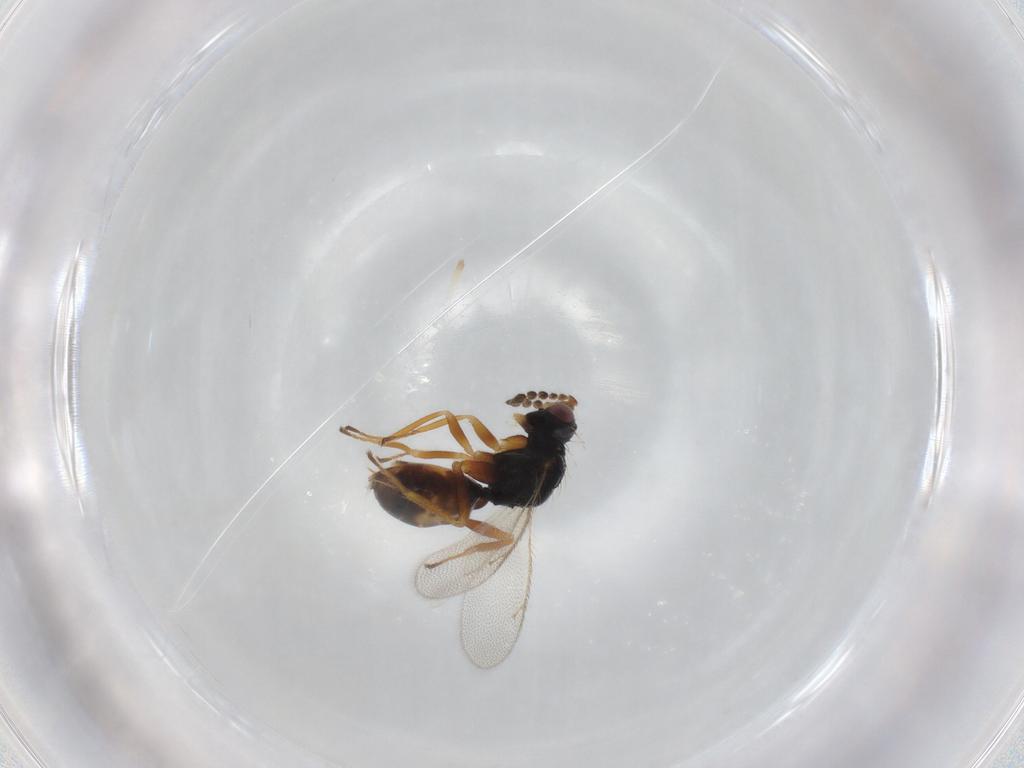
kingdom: Animalia
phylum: Arthropoda
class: Insecta
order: Hymenoptera
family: Eulophidae
